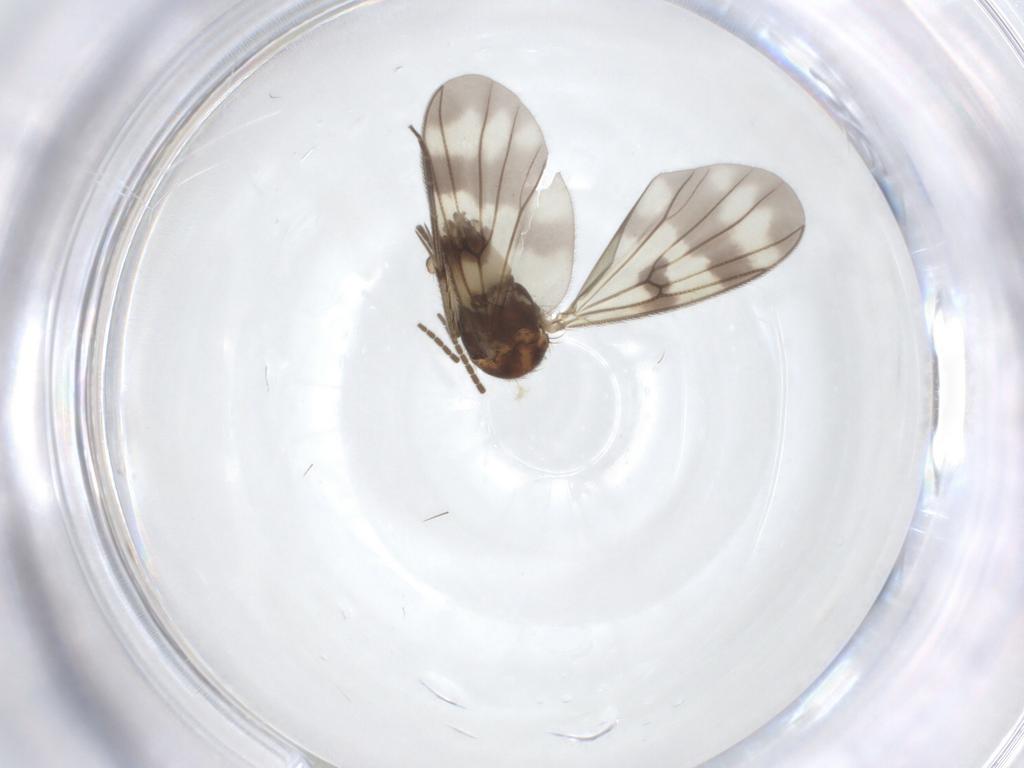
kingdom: Animalia
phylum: Arthropoda
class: Insecta
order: Diptera
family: Mycetophilidae
